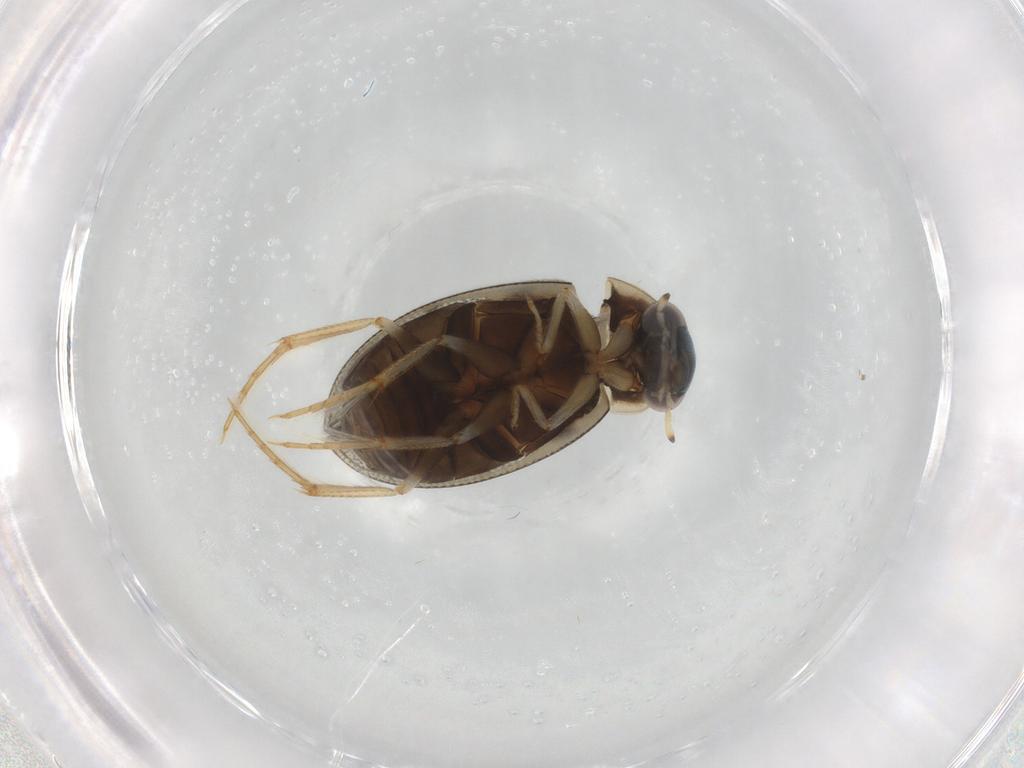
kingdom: Animalia
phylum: Arthropoda
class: Insecta
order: Coleoptera
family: Hydrophilidae
